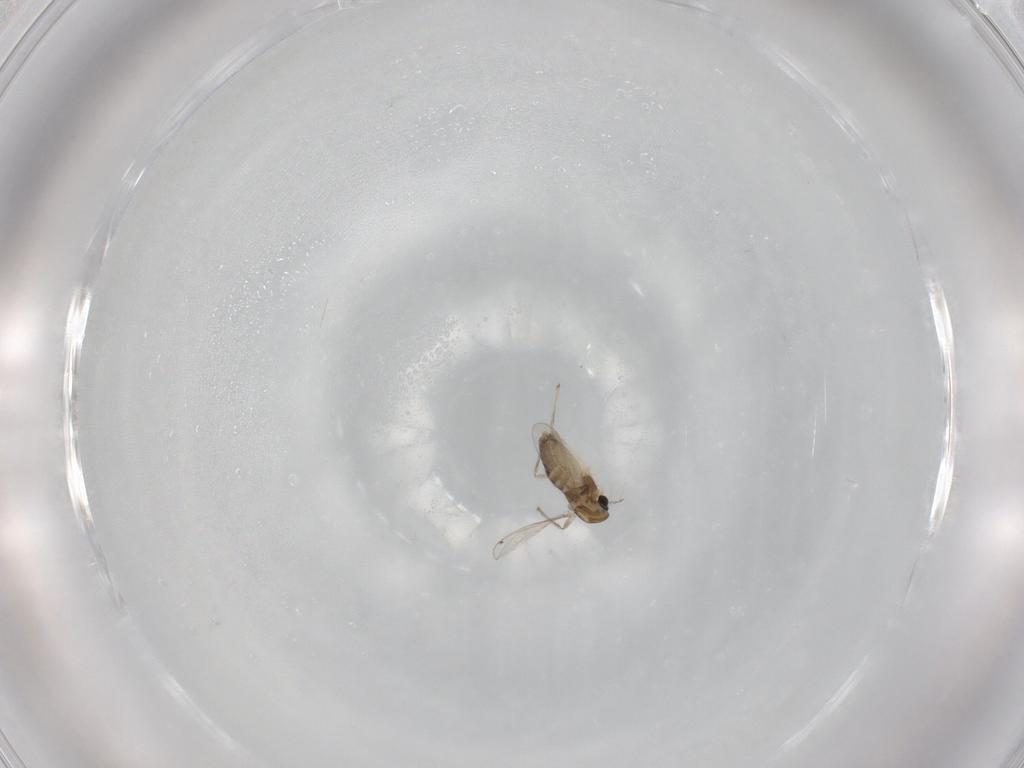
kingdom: Animalia
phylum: Arthropoda
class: Insecta
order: Diptera
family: Chironomidae
